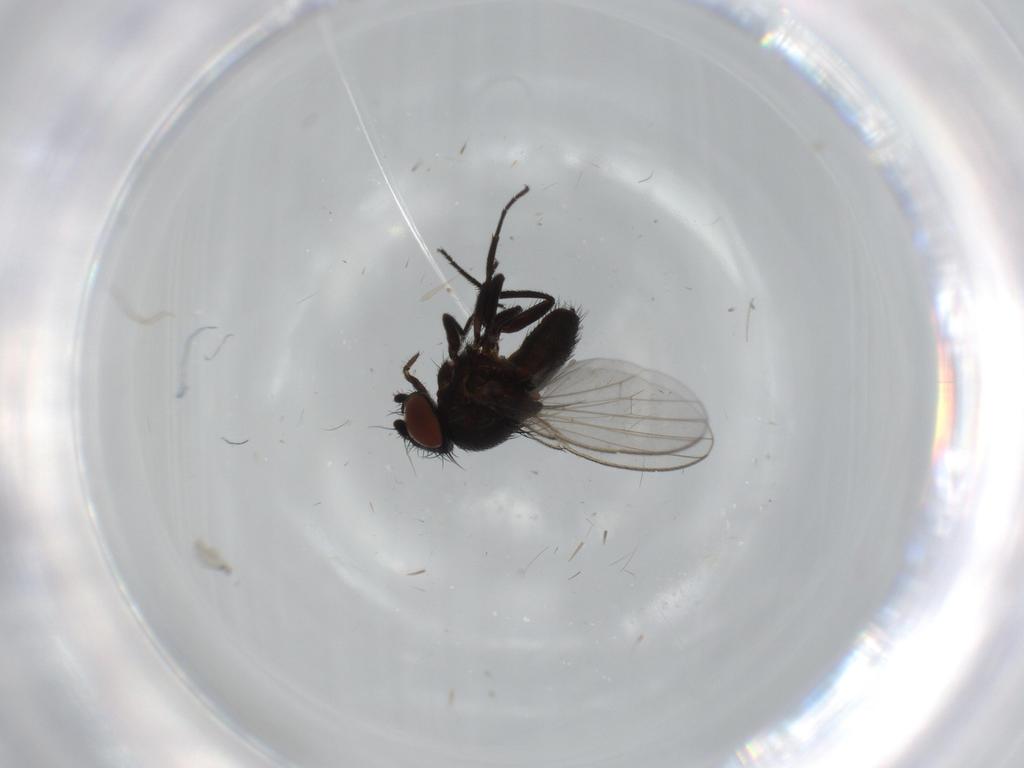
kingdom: Animalia
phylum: Arthropoda
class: Insecta
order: Diptera
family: Milichiidae
